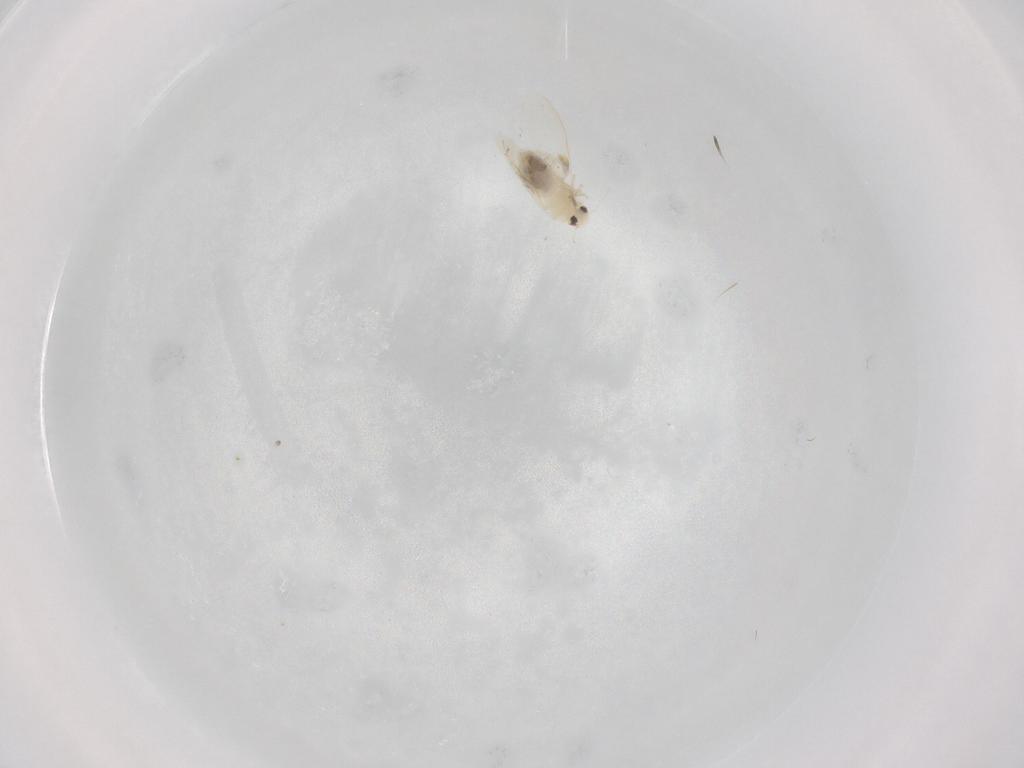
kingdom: Animalia
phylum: Arthropoda
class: Insecta
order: Hemiptera
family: Aleyrodidae
